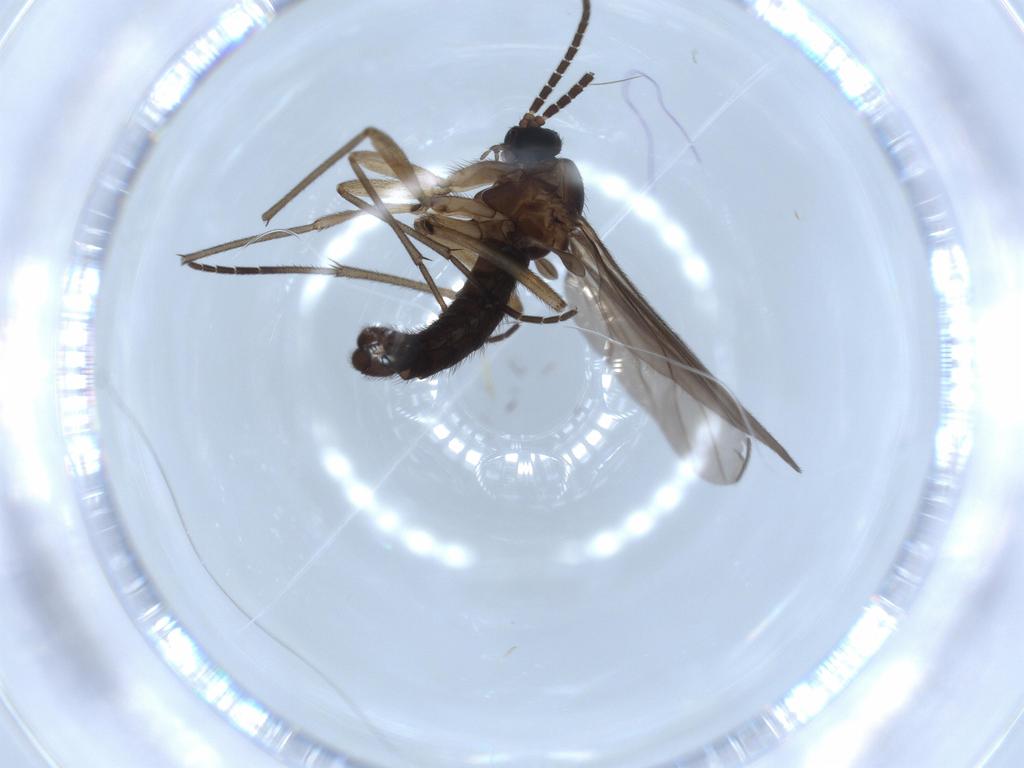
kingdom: Animalia
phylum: Arthropoda
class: Insecta
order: Diptera
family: Sciaridae
